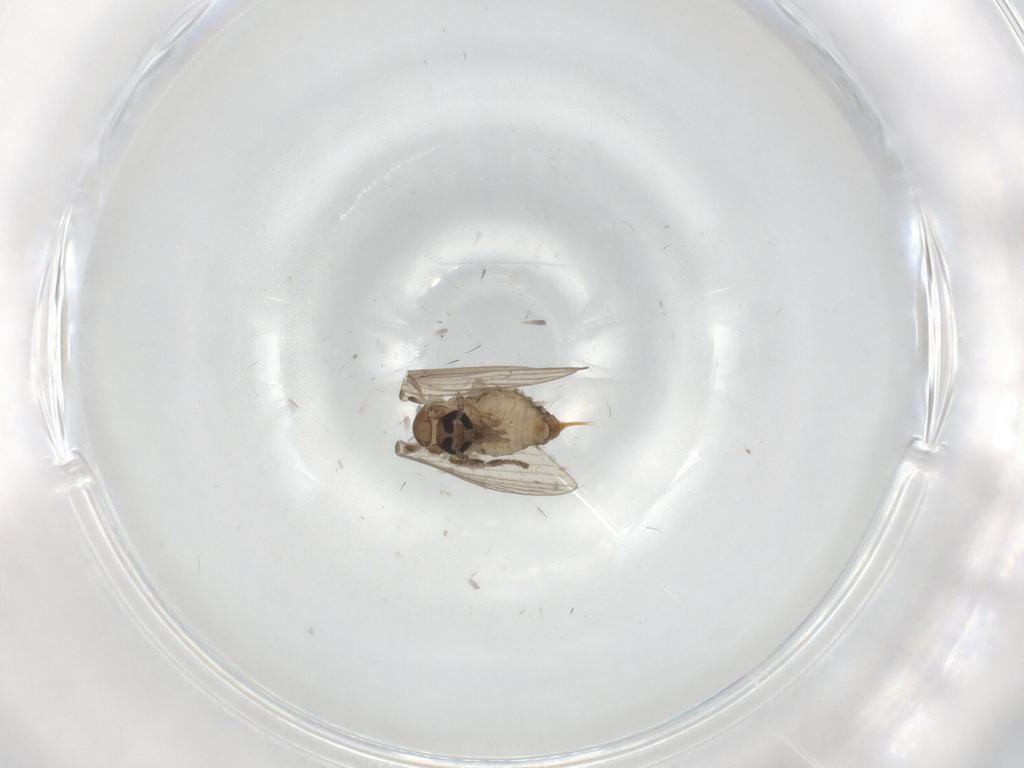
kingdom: Animalia
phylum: Arthropoda
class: Insecta
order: Diptera
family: Psychodidae
